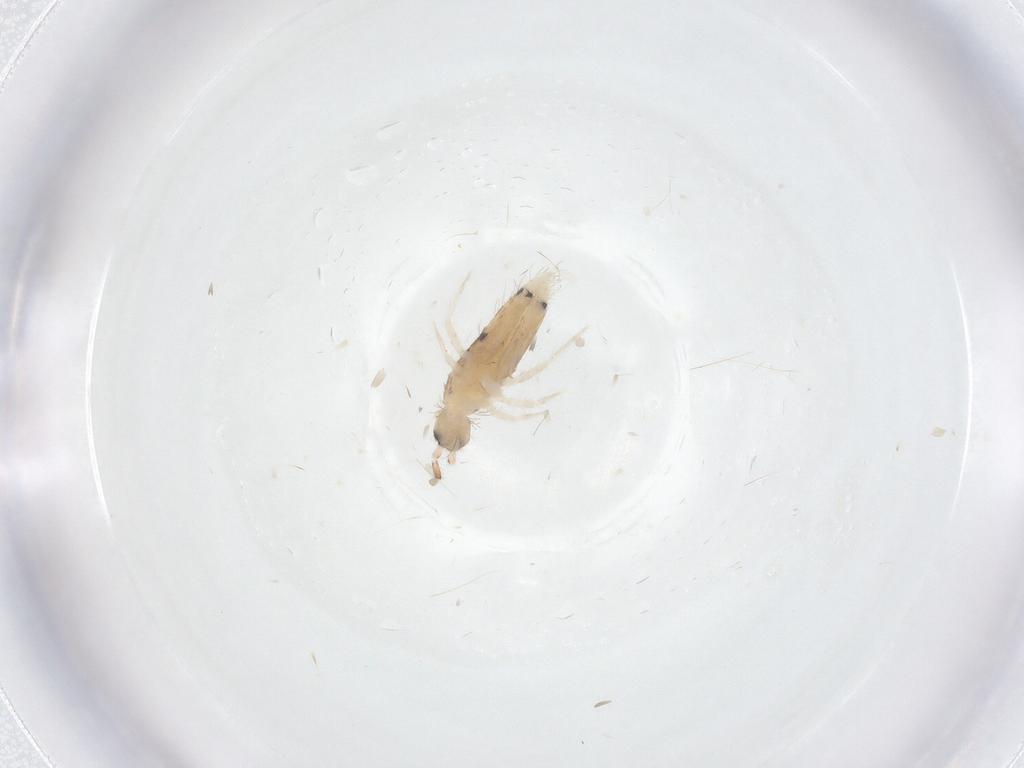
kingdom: Animalia
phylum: Arthropoda
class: Collembola
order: Entomobryomorpha
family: Entomobryidae
